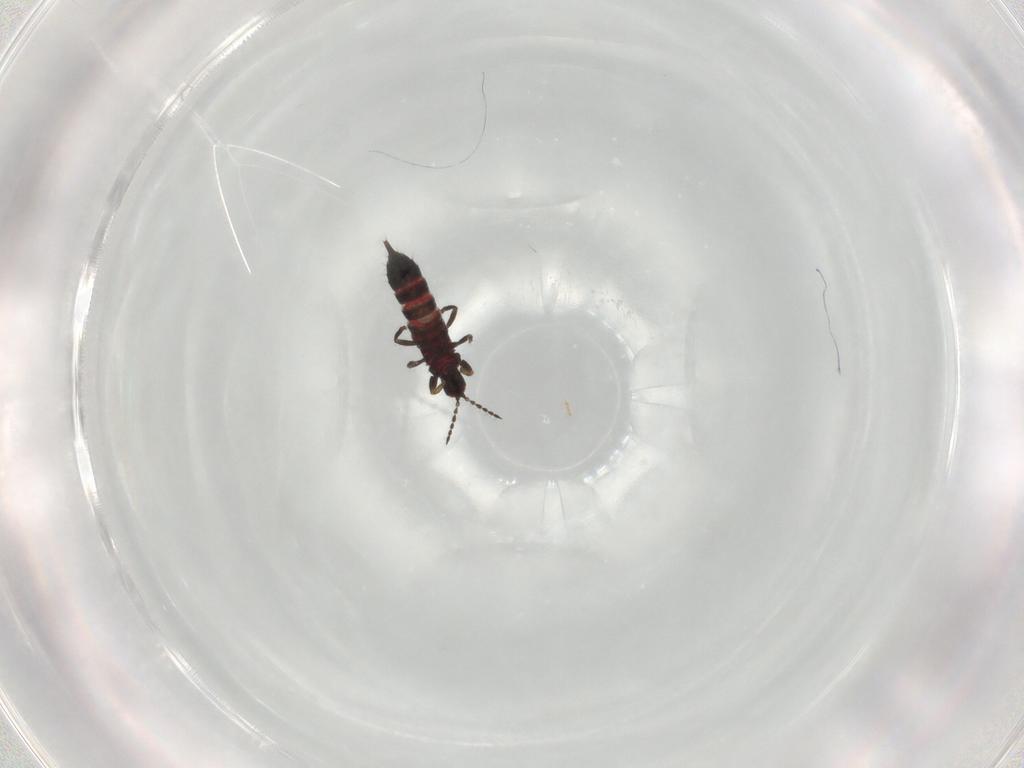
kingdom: Animalia
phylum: Arthropoda
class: Insecta
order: Thysanoptera
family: Phlaeothripidae
